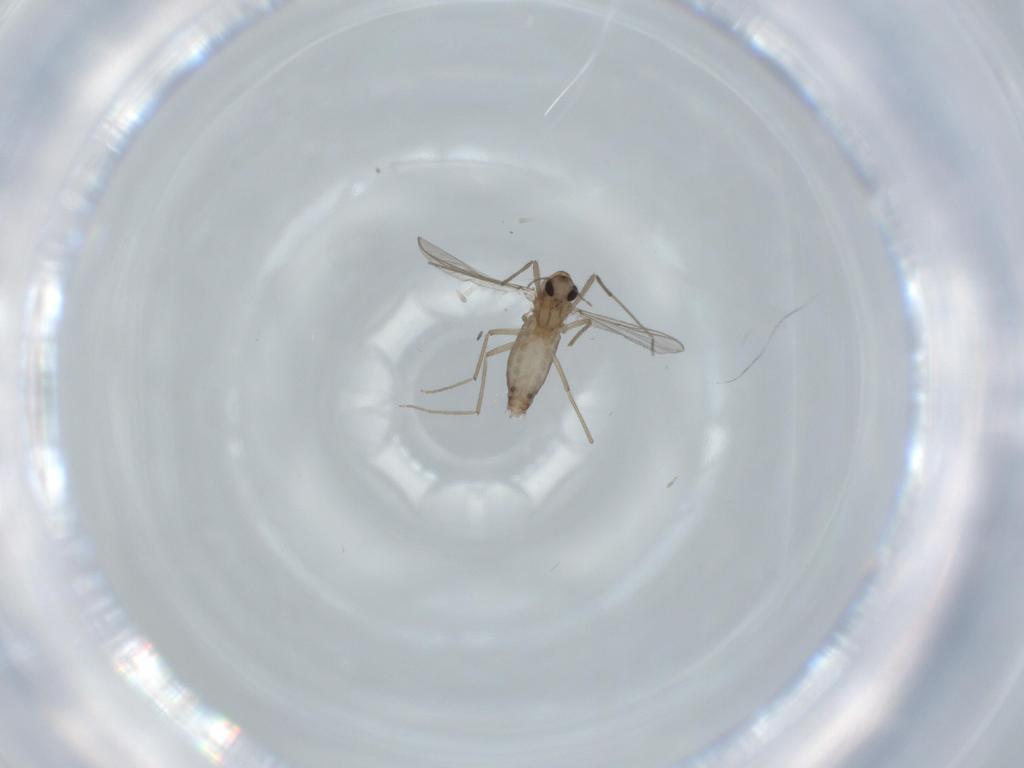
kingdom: Animalia
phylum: Arthropoda
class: Insecta
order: Diptera
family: Chironomidae
